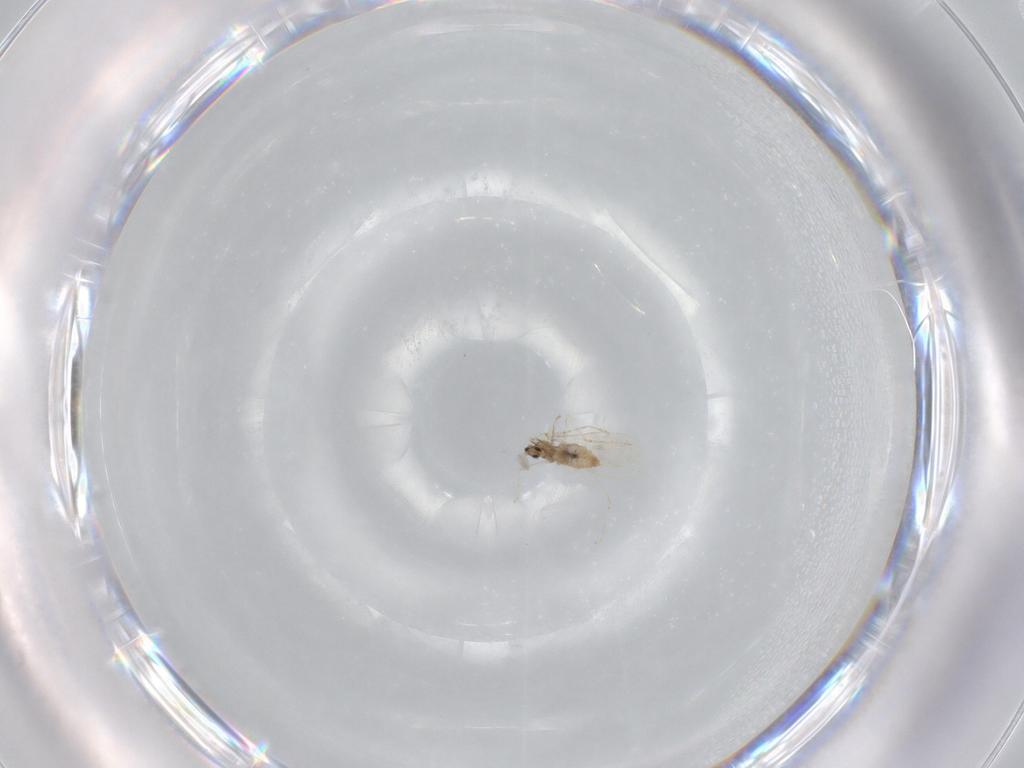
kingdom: Animalia
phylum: Arthropoda
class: Insecta
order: Diptera
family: Cecidomyiidae
